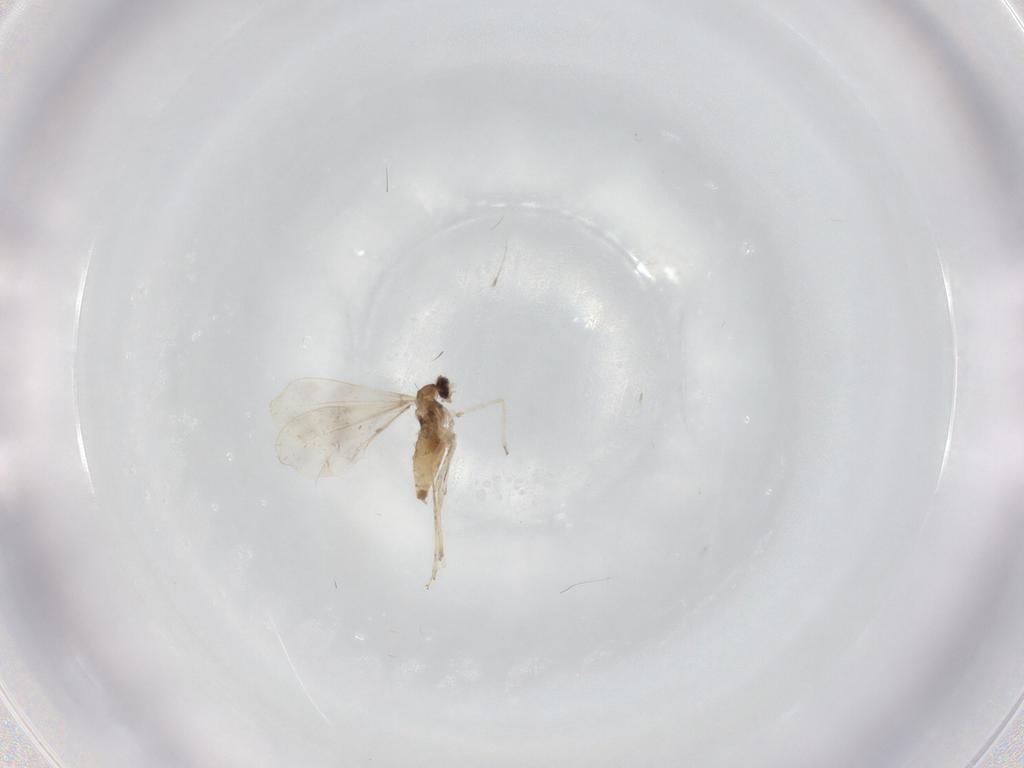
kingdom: Animalia
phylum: Arthropoda
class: Insecta
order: Diptera
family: Cecidomyiidae
